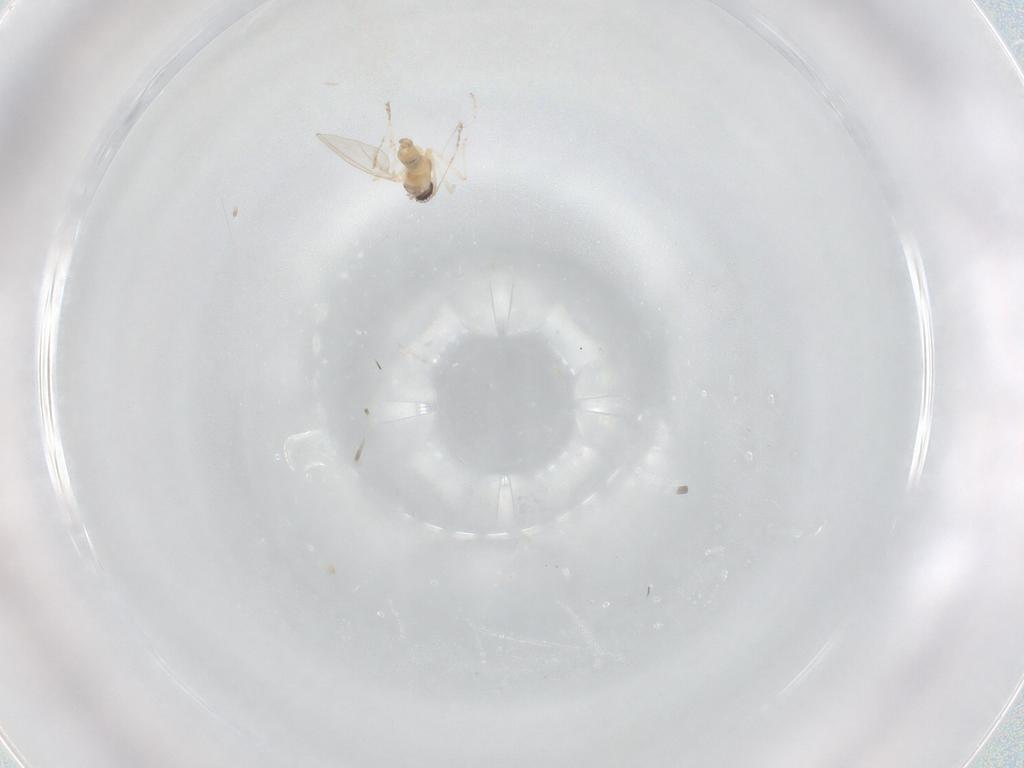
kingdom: Animalia
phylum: Arthropoda
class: Insecta
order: Diptera
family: Cecidomyiidae
